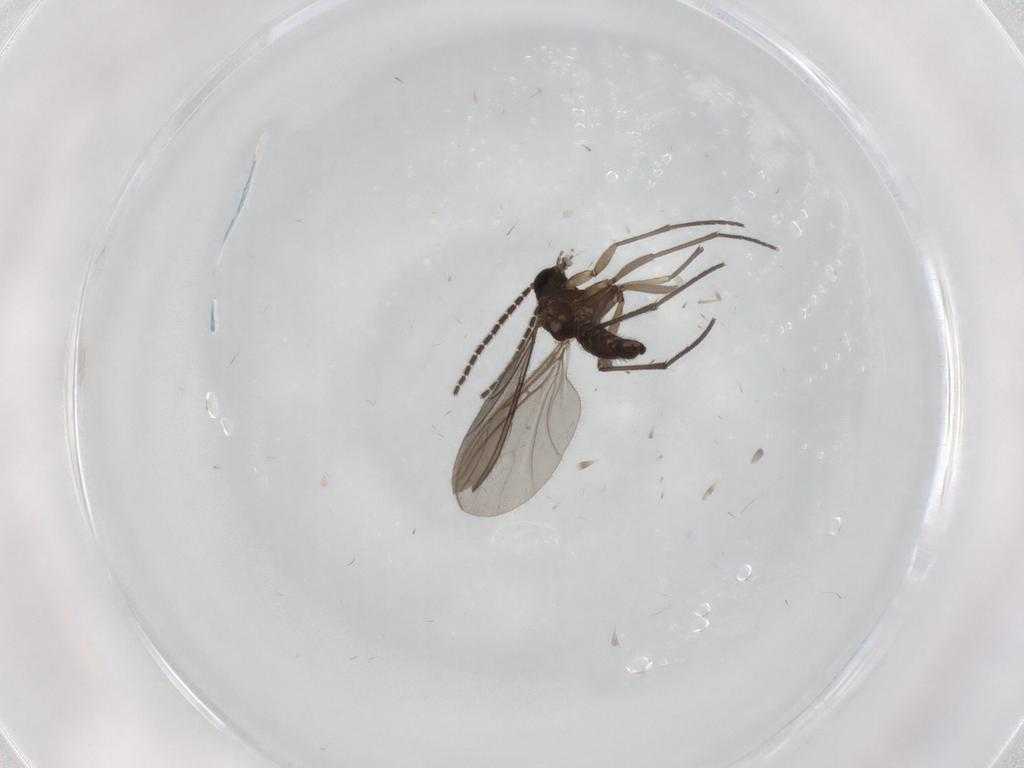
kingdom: Animalia
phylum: Arthropoda
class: Insecta
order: Diptera
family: Sciaridae
